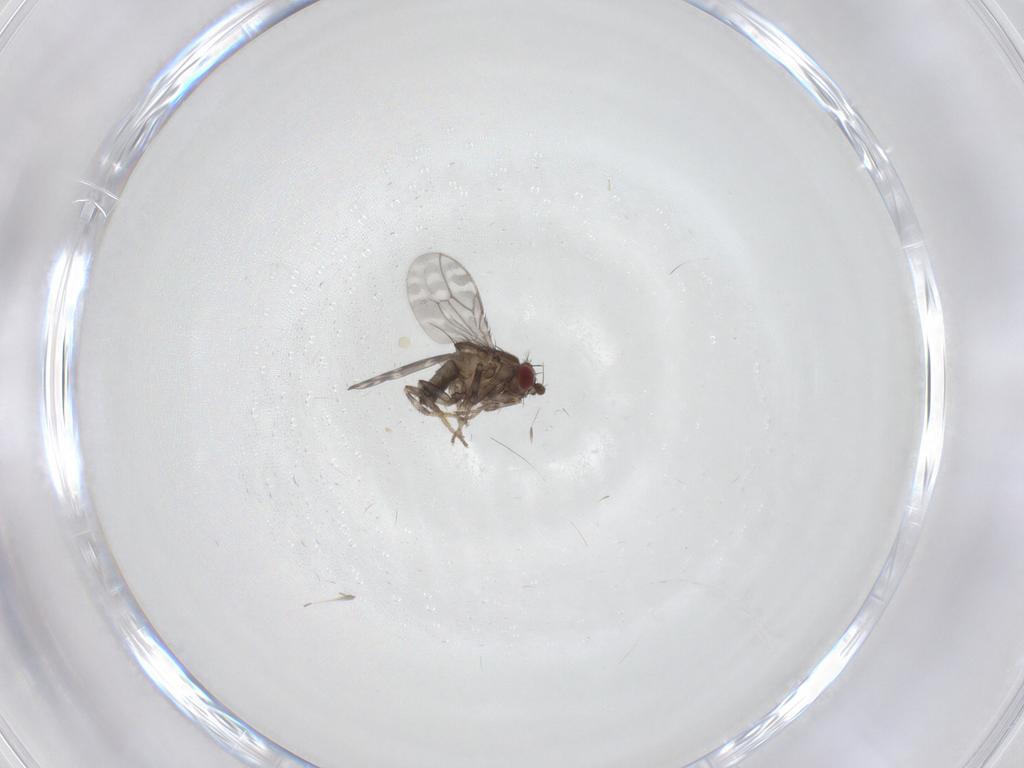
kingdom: Animalia
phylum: Arthropoda
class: Insecta
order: Diptera
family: Sphaeroceridae
